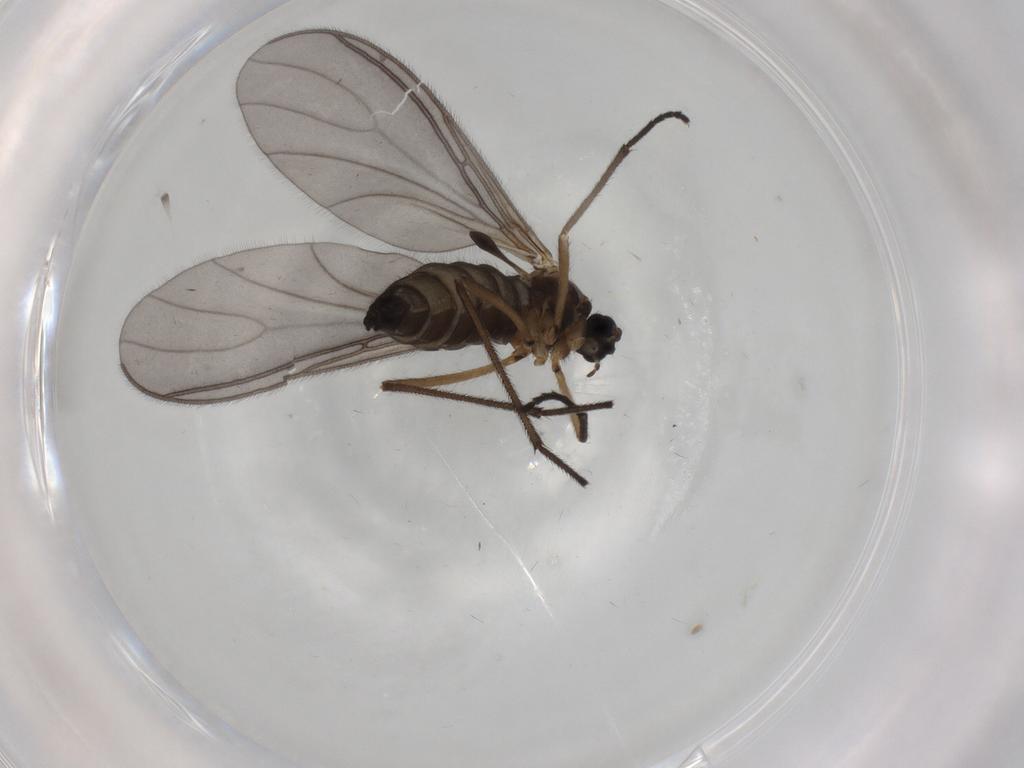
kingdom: Animalia
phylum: Arthropoda
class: Insecta
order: Diptera
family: Sciaridae
